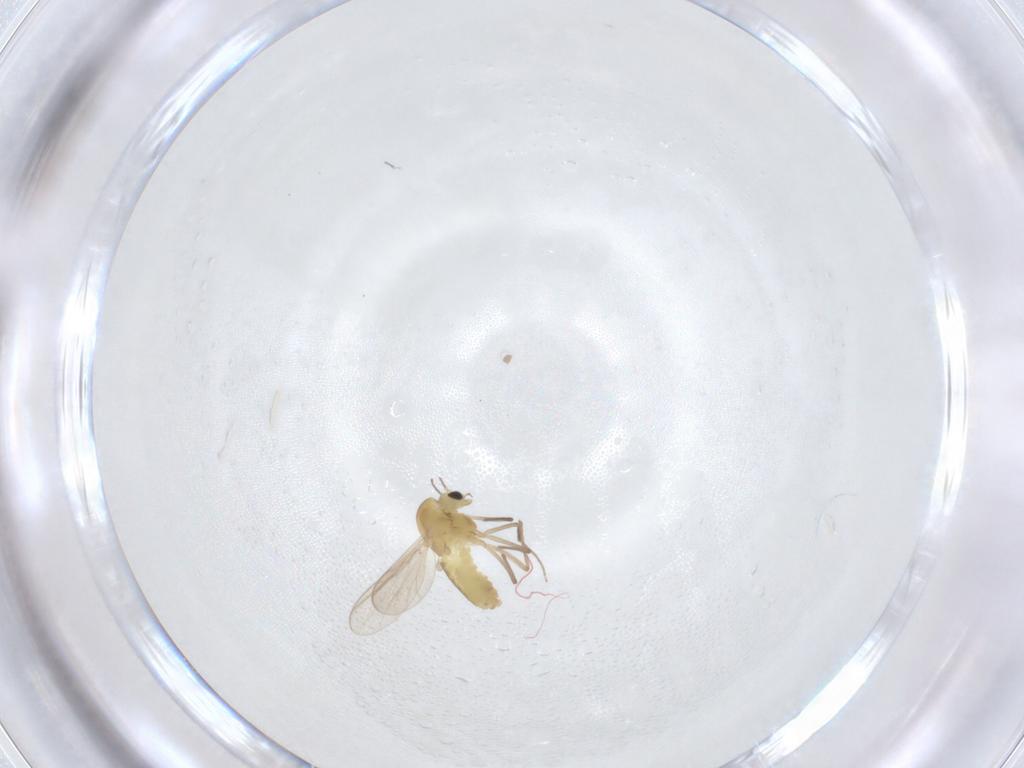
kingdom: Animalia
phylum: Arthropoda
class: Insecta
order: Diptera
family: Chironomidae
